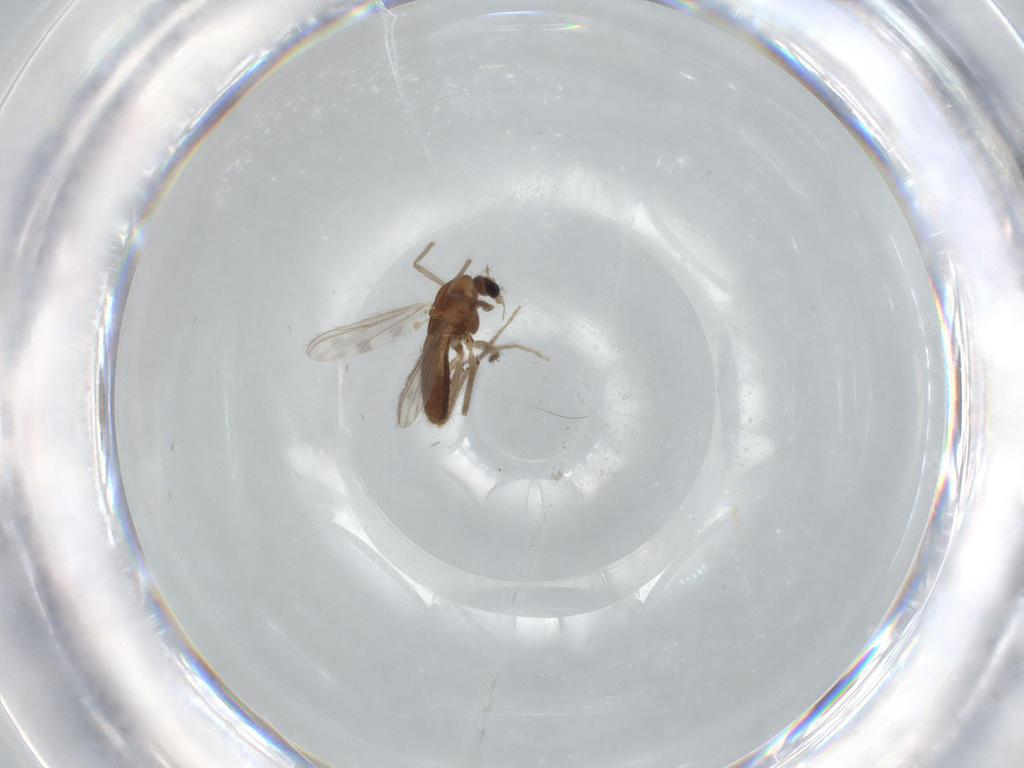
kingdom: Animalia
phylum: Arthropoda
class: Insecta
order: Diptera
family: Chironomidae
